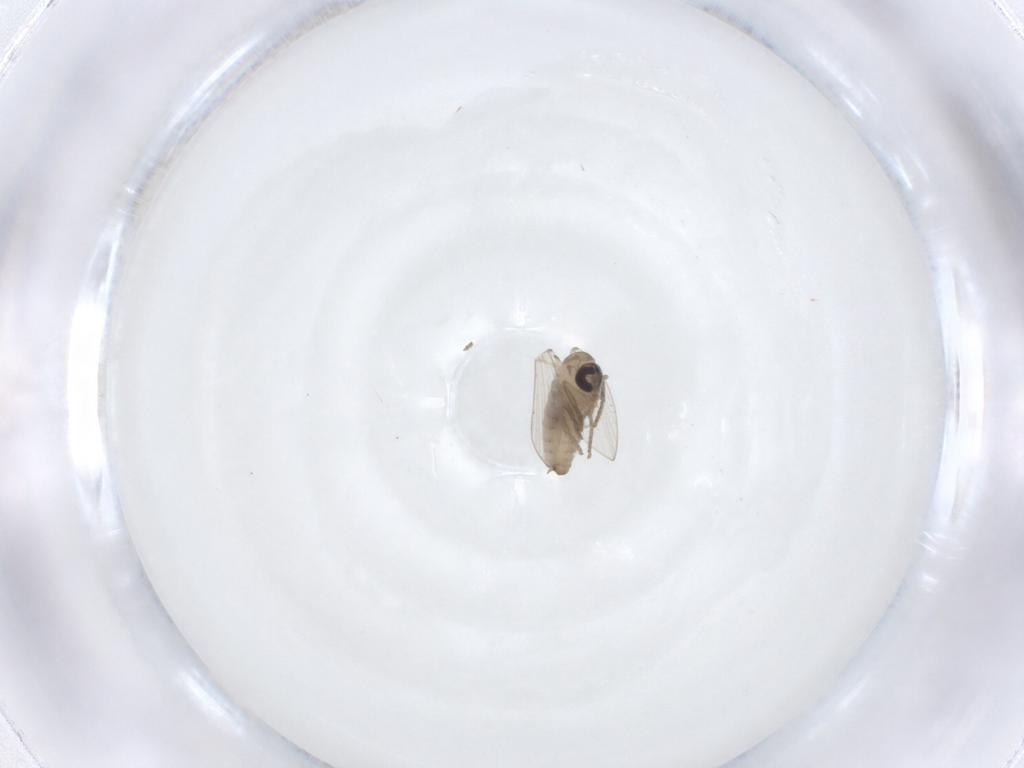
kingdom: Animalia
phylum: Arthropoda
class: Insecta
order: Diptera
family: Psychodidae
